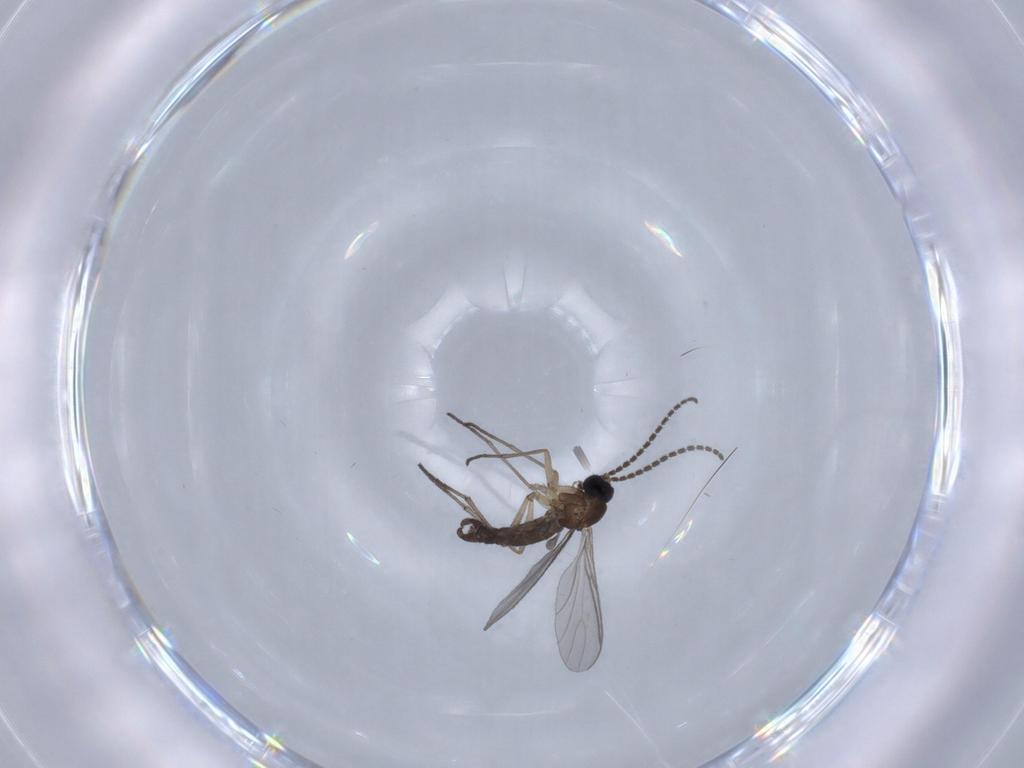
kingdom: Animalia
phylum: Arthropoda
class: Insecta
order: Diptera
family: Sciaridae
